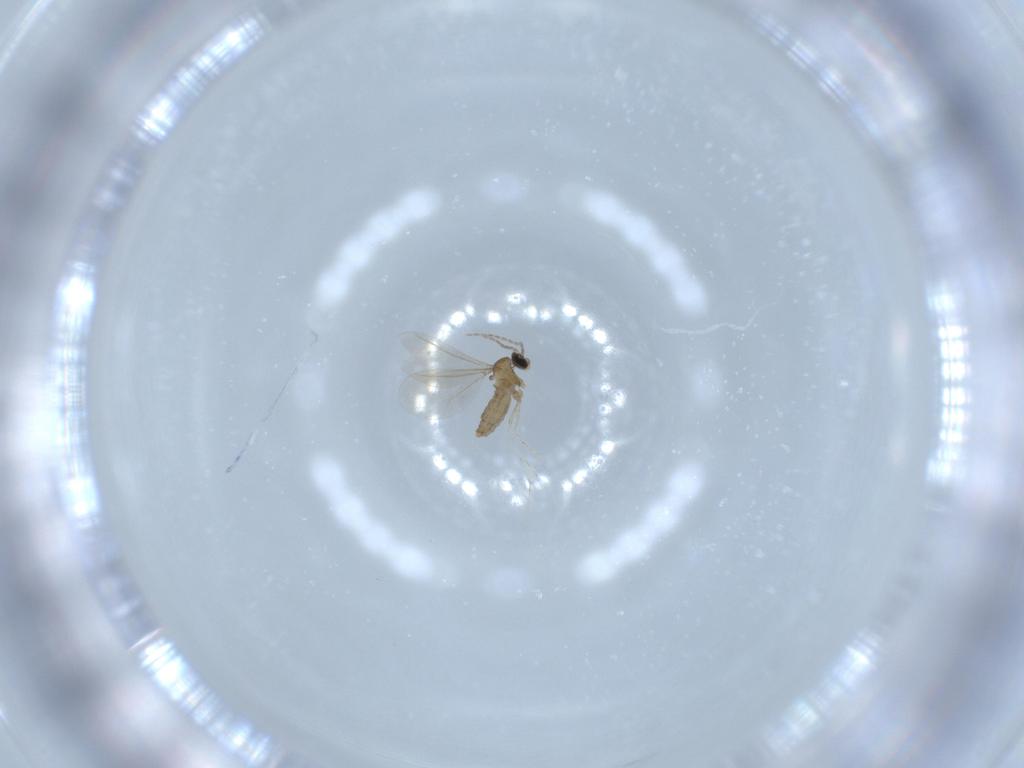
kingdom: Animalia
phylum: Arthropoda
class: Insecta
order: Diptera
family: Cecidomyiidae
